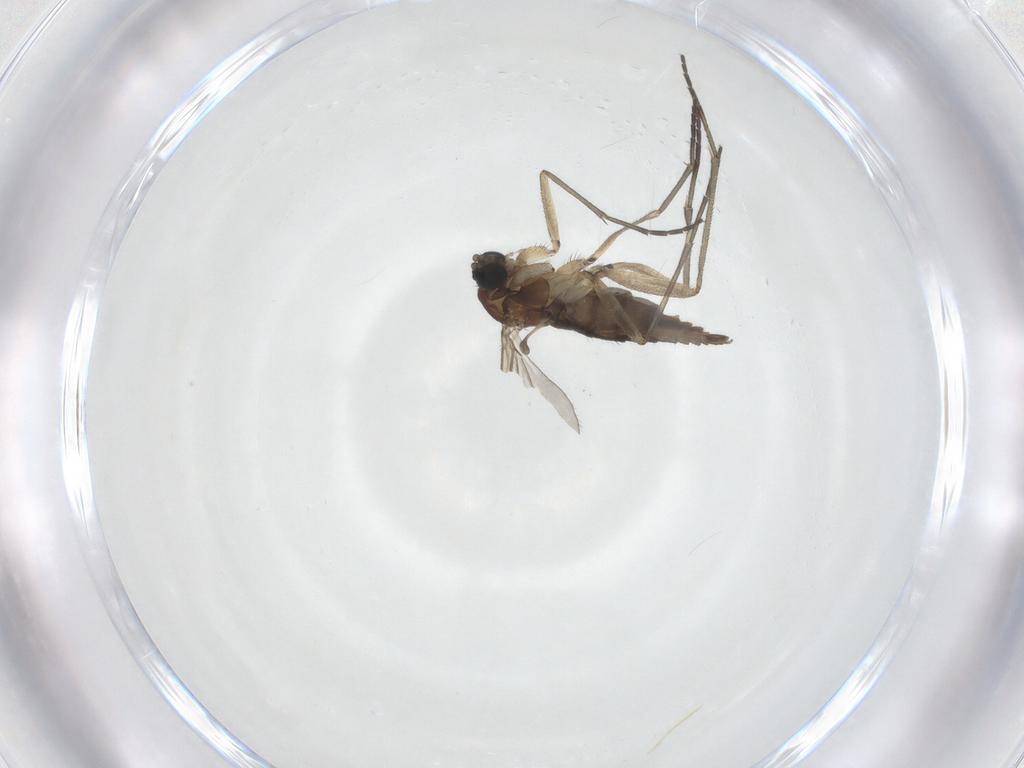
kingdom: Animalia
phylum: Arthropoda
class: Insecta
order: Diptera
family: Sciaridae
